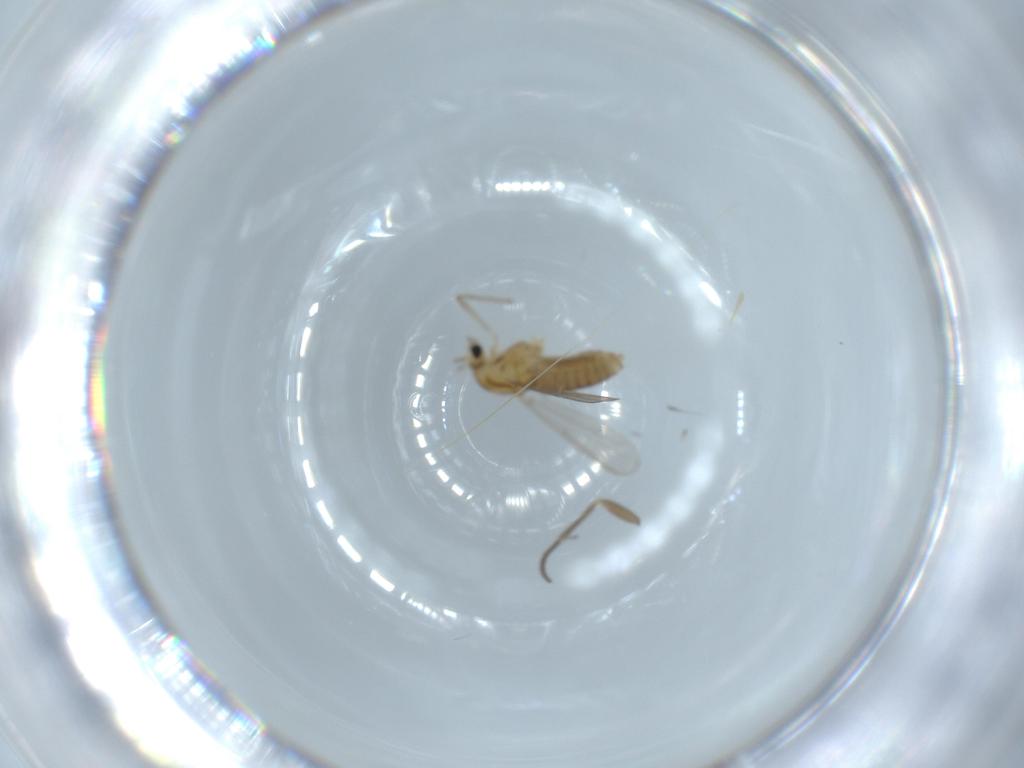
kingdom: Animalia
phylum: Arthropoda
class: Insecta
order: Diptera
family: Chironomidae
